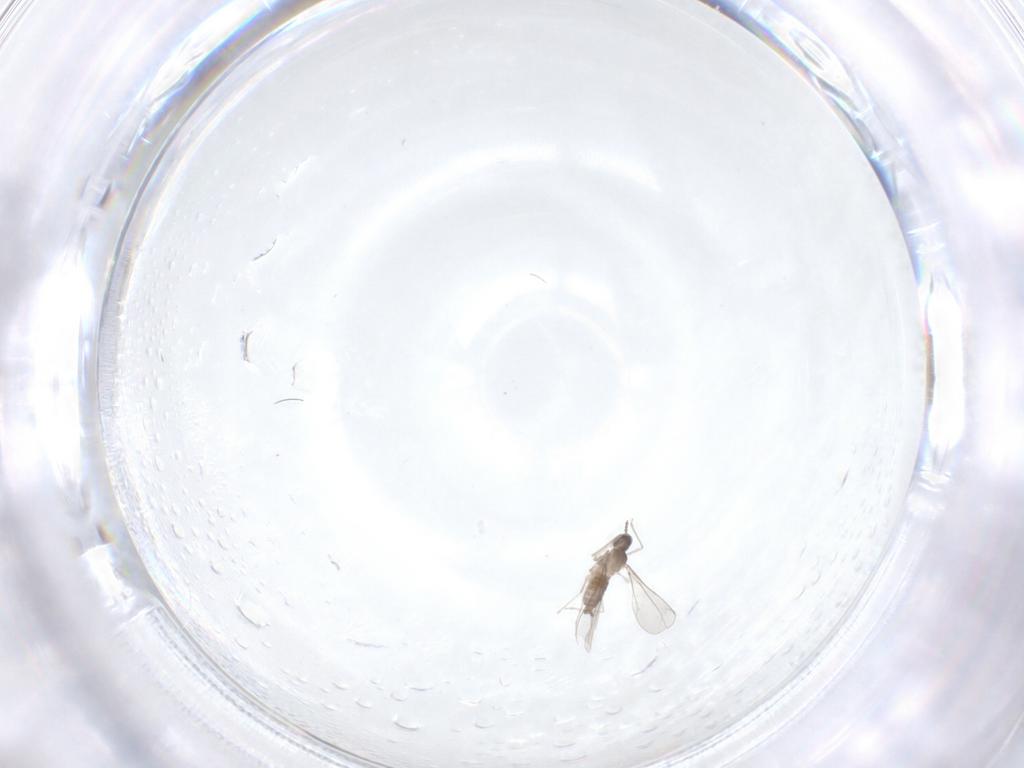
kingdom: Animalia
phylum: Arthropoda
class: Insecta
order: Diptera
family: Cecidomyiidae
